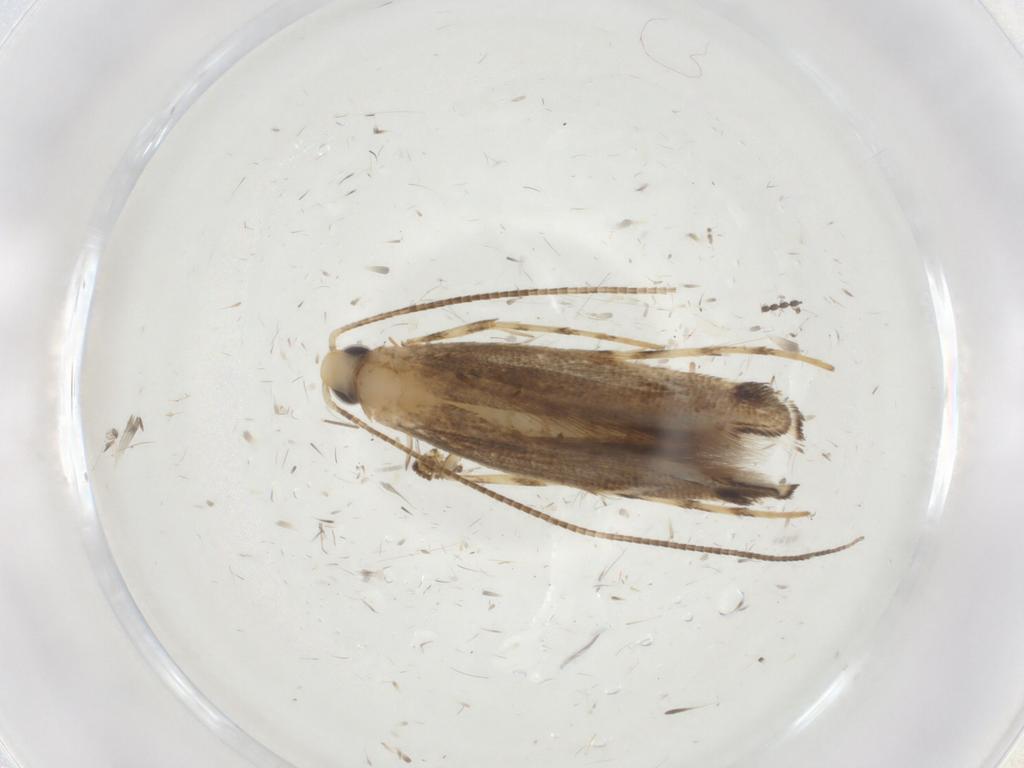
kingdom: Animalia
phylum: Arthropoda
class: Insecta
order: Lepidoptera
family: Gracillariidae
